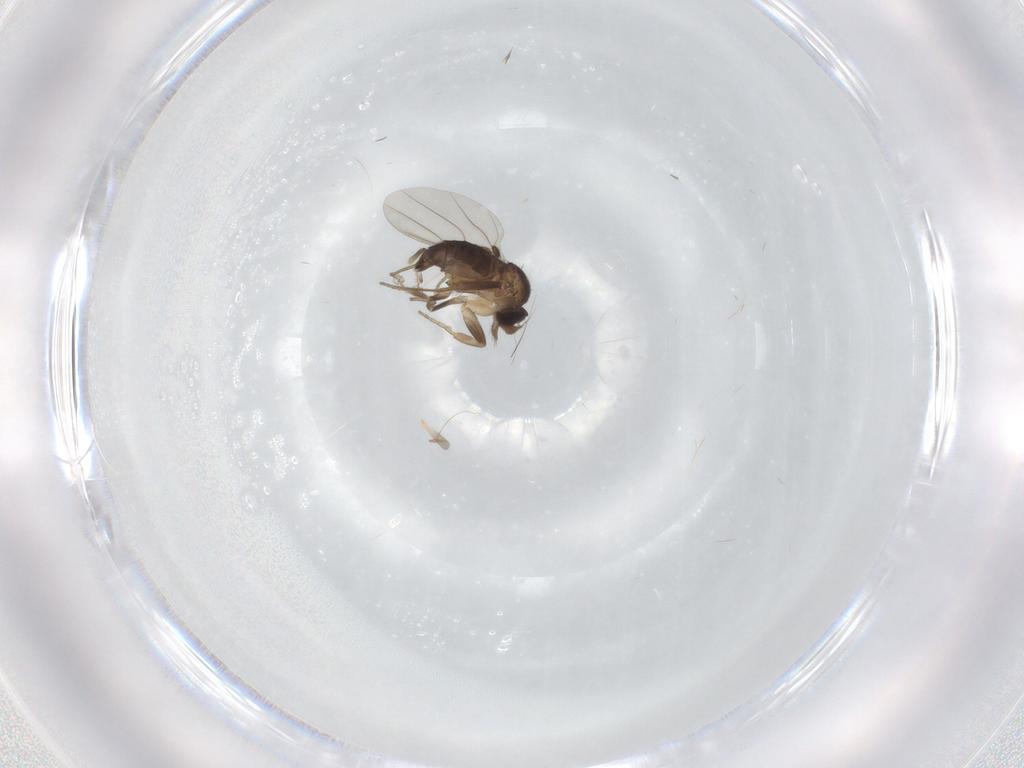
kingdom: Animalia
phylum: Arthropoda
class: Insecta
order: Diptera
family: Phoridae
